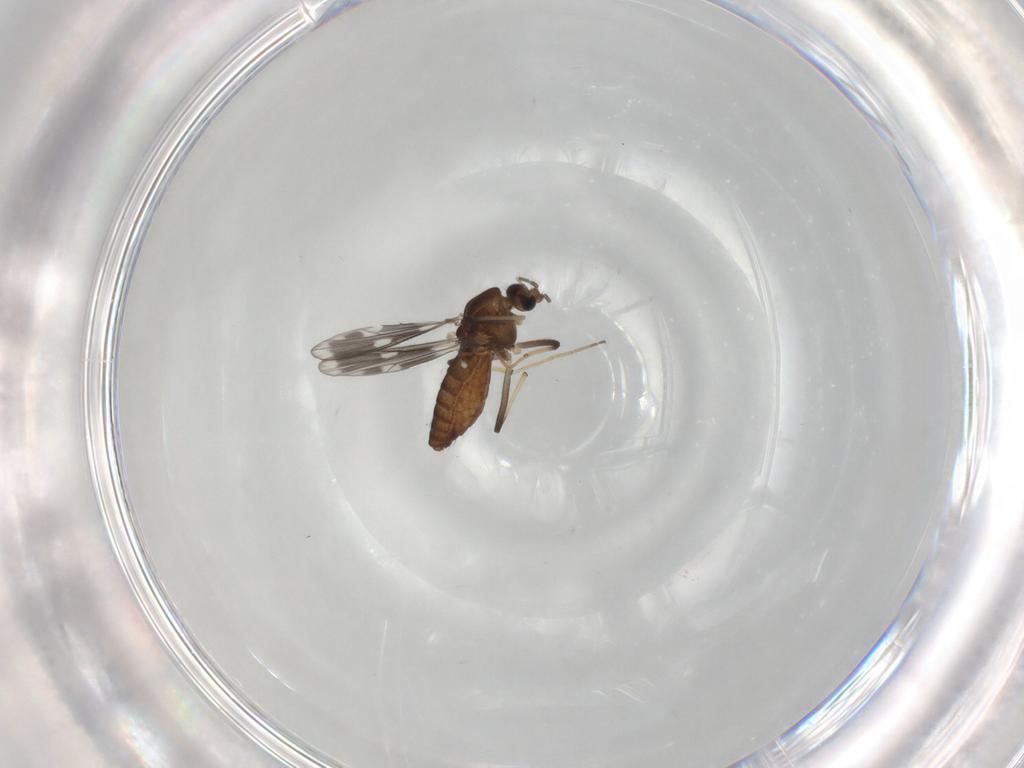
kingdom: Animalia
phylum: Arthropoda
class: Insecta
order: Diptera
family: Chironomidae
